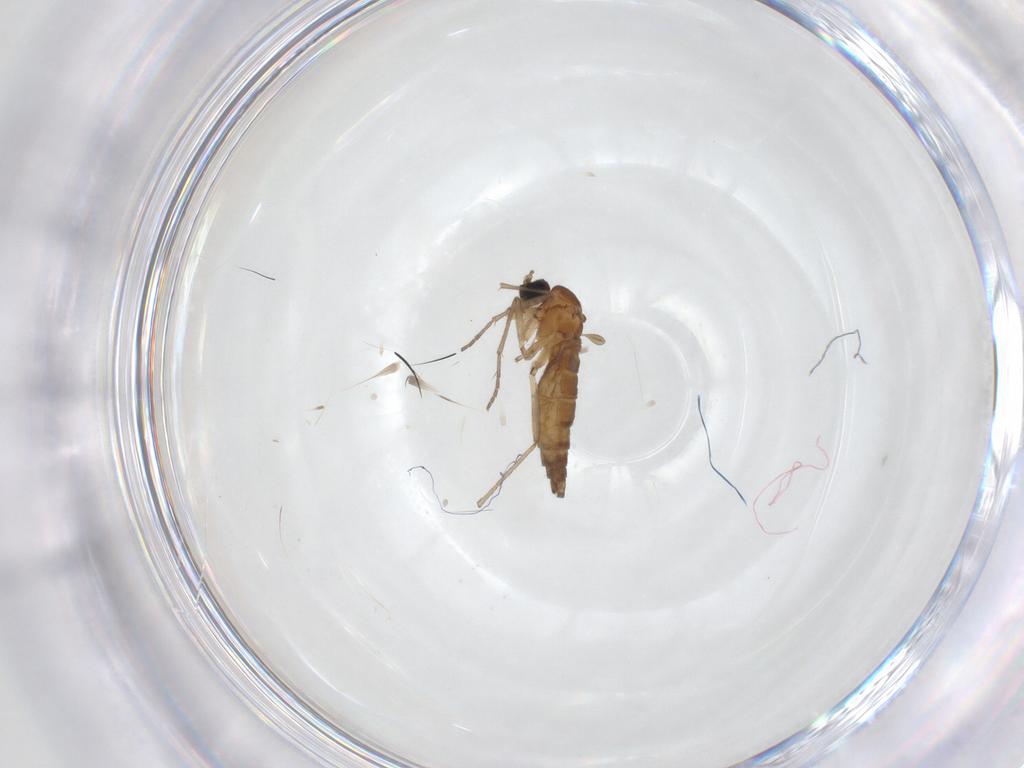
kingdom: Animalia
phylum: Arthropoda
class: Insecta
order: Diptera
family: Sciaridae
